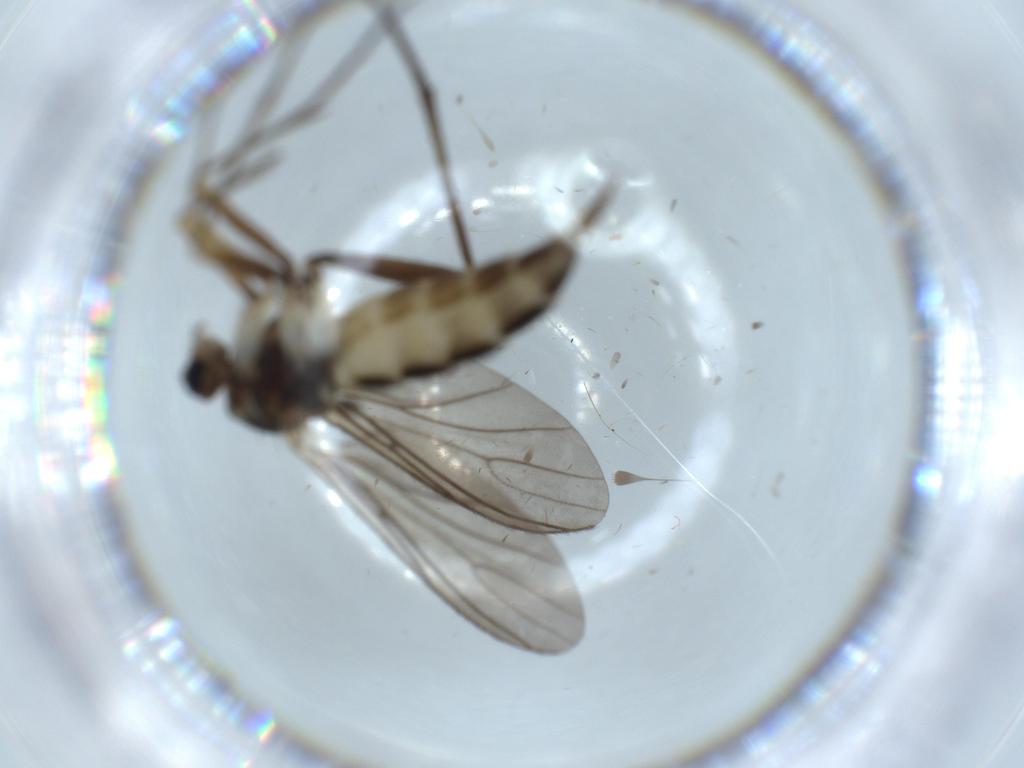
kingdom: Animalia
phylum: Arthropoda
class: Insecta
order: Diptera
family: Sciaridae
